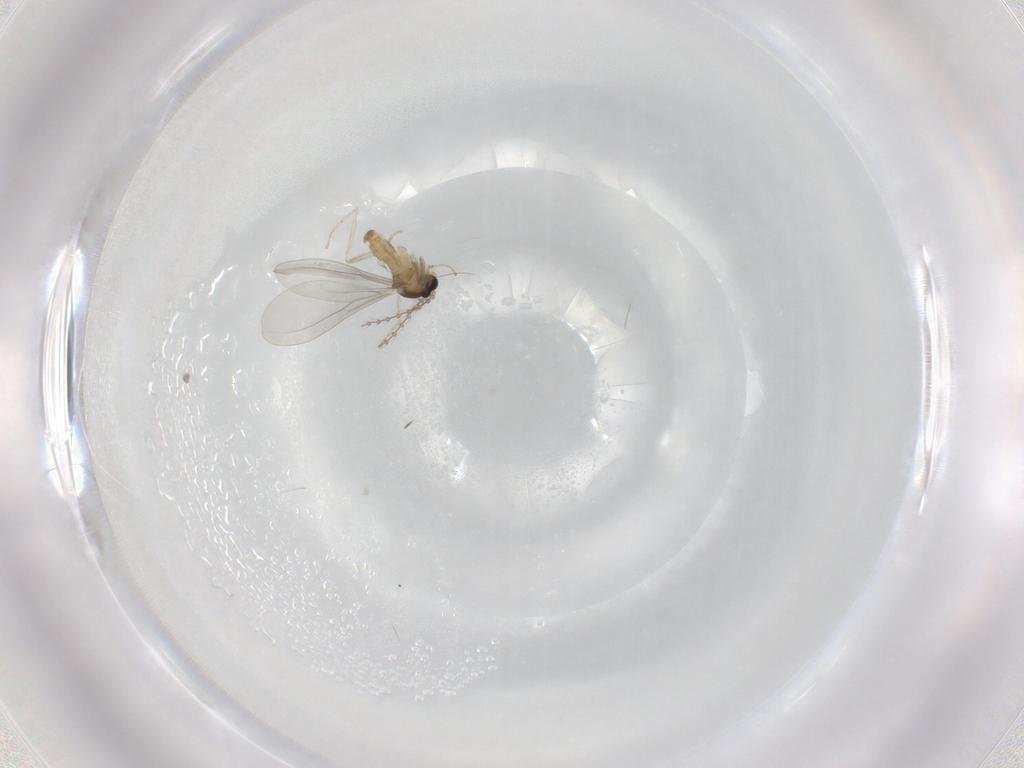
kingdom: Animalia
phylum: Arthropoda
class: Insecta
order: Diptera
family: Cecidomyiidae
